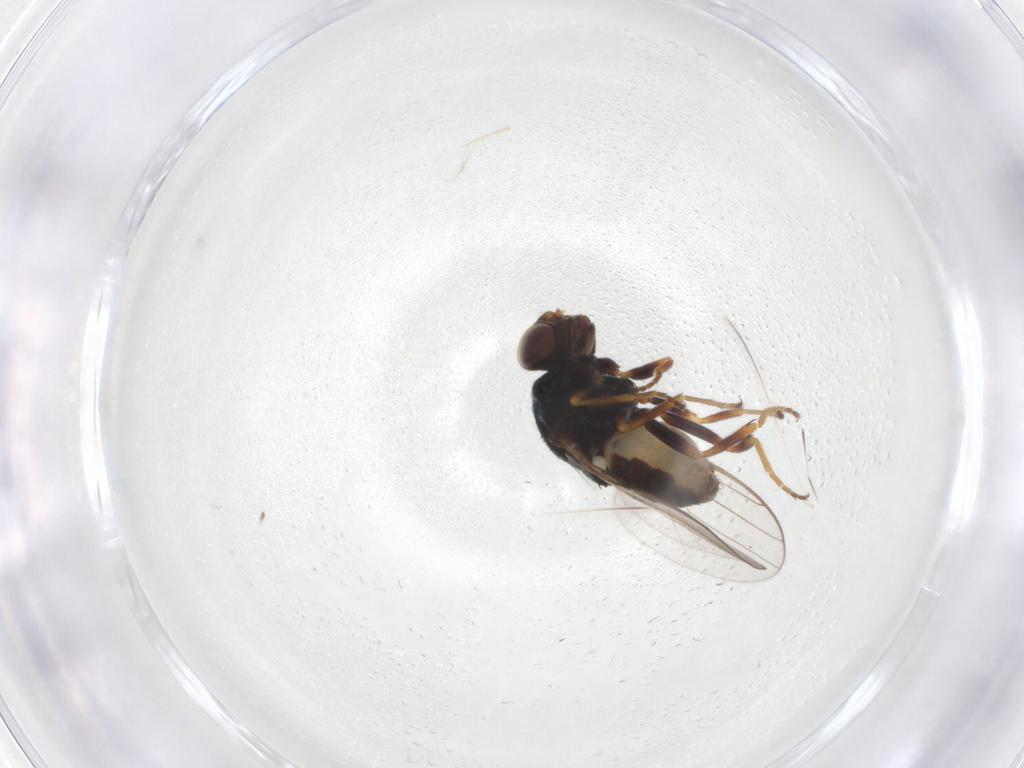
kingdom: Animalia
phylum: Arthropoda
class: Insecta
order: Diptera
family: Chloropidae
